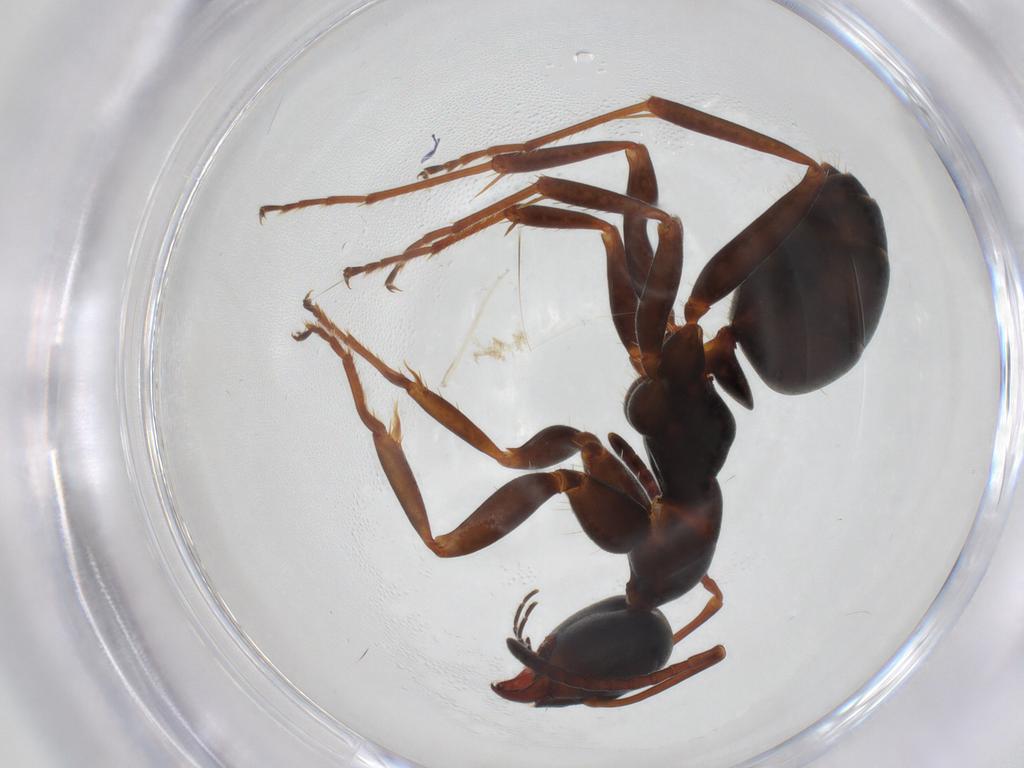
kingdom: Animalia
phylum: Arthropoda
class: Insecta
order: Hymenoptera
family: Formicidae
